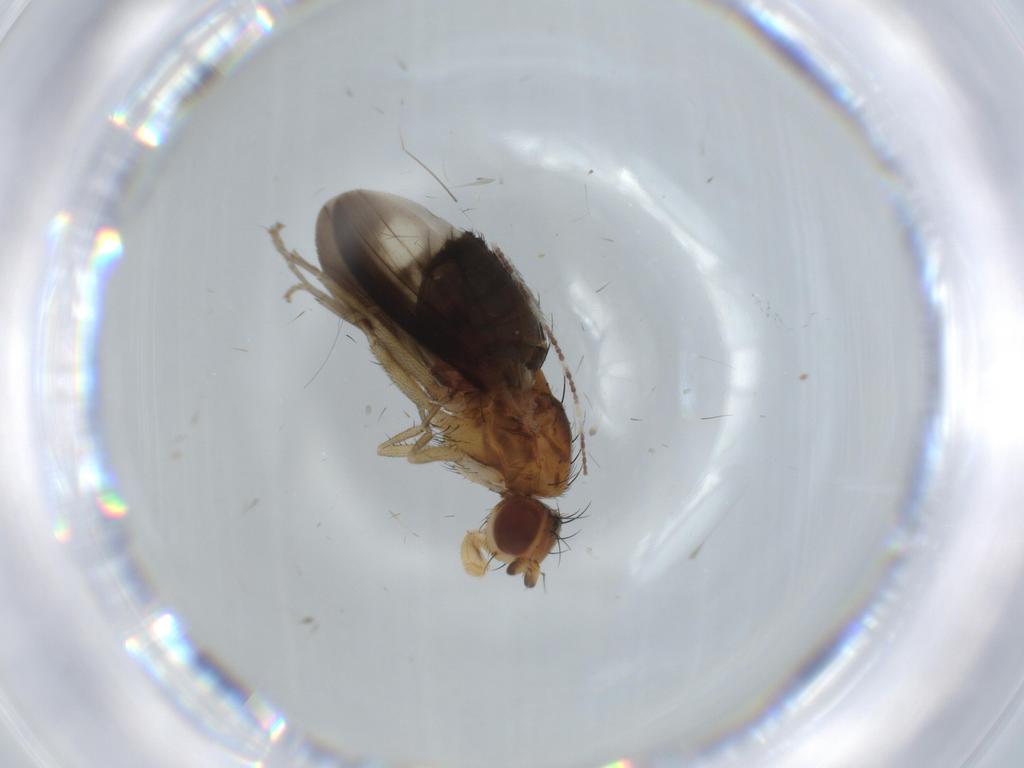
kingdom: Animalia
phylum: Arthropoda
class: Insecta
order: Diptera
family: Heleomyzidae
